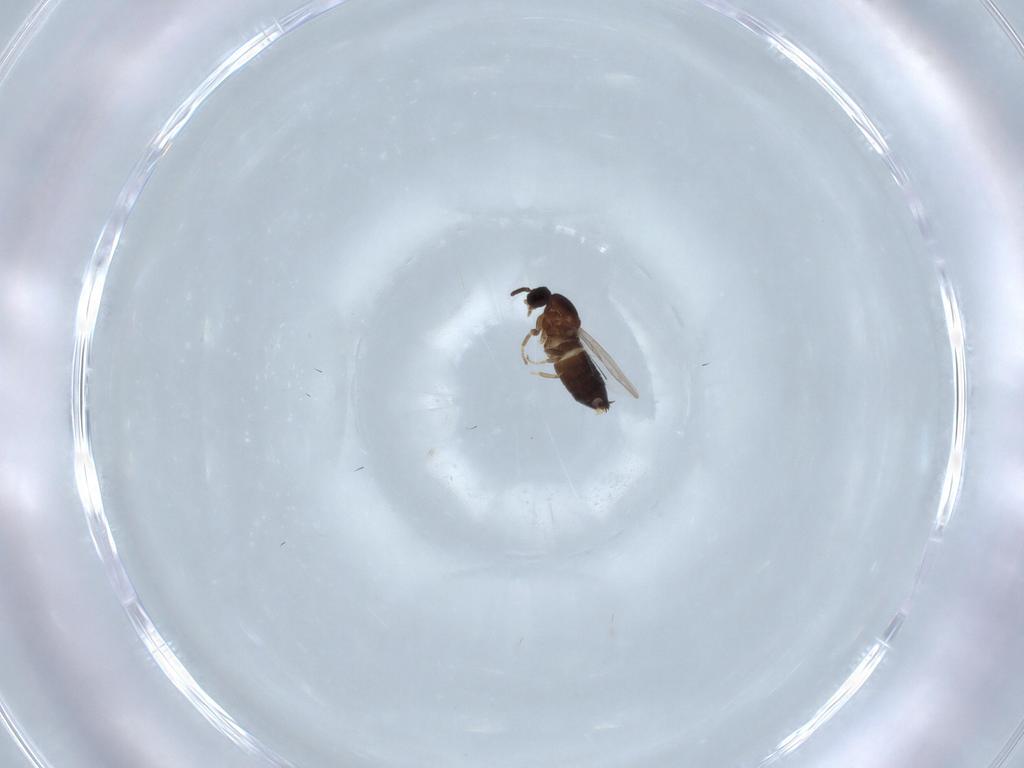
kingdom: Animalia
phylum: Arthropoda
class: Insecta
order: Diptera
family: Scatopsidae
